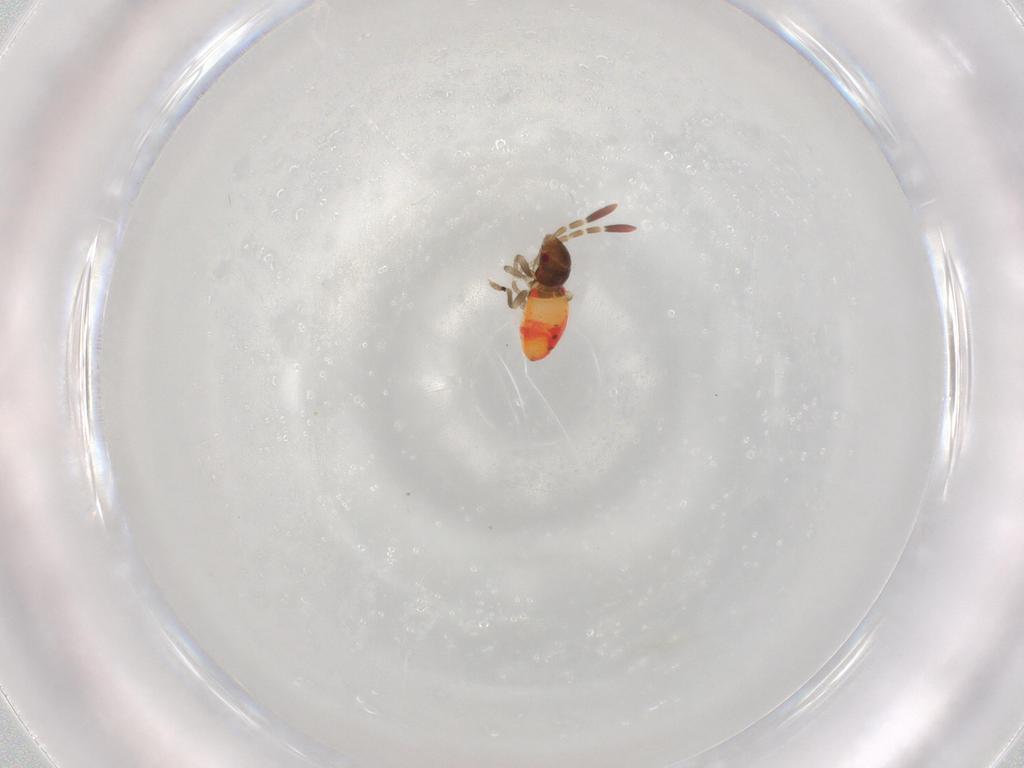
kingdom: Animalia
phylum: Arthropoda
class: Insecta
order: Hemiptera
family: Rhyparochromidae
